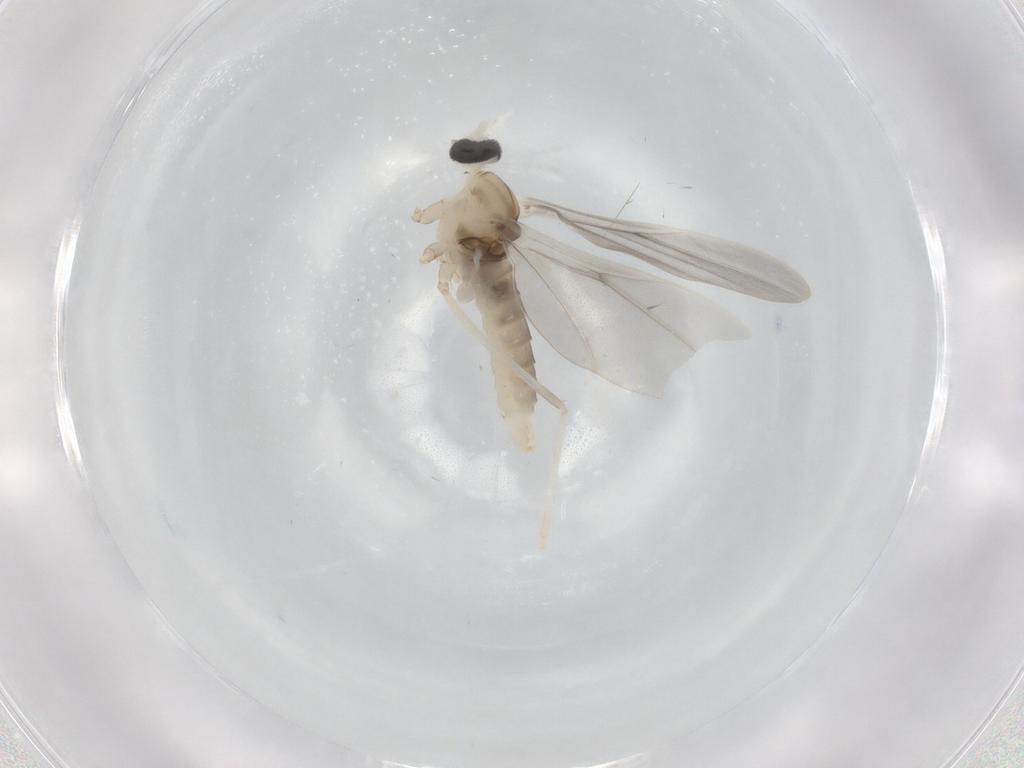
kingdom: Animalia
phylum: Arthropoda
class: Insecta
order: Diptera
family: Cecidomyiidae
